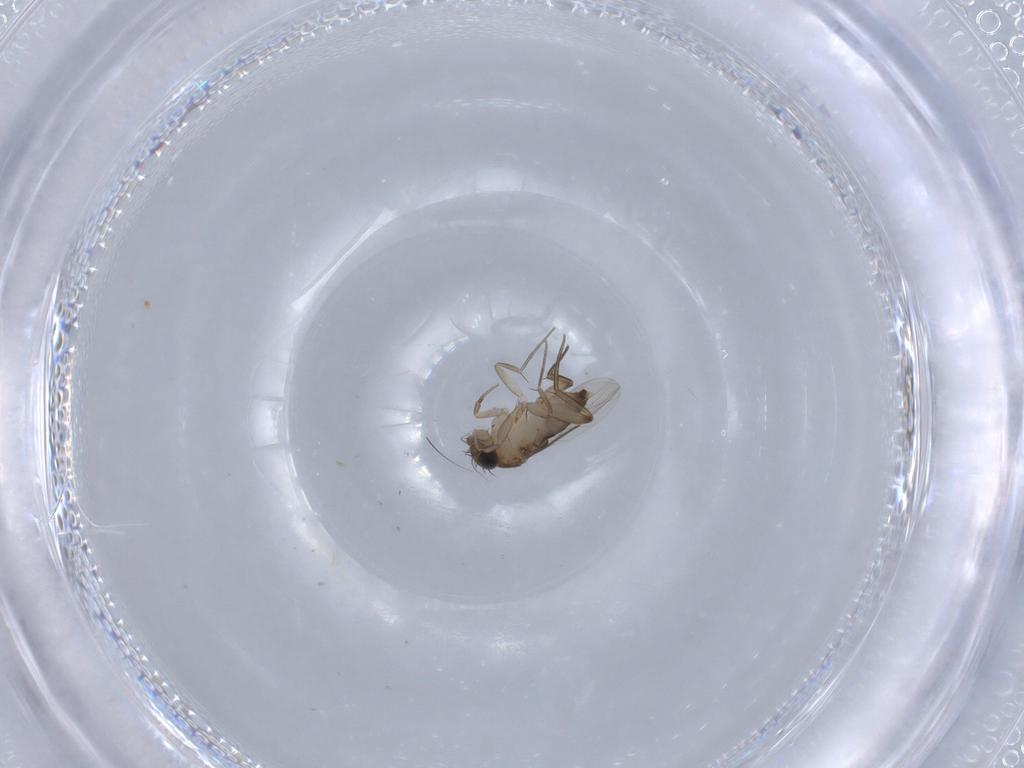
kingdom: Animalia
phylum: Arthropoda
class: Insecta
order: Diptera
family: Phoridae
